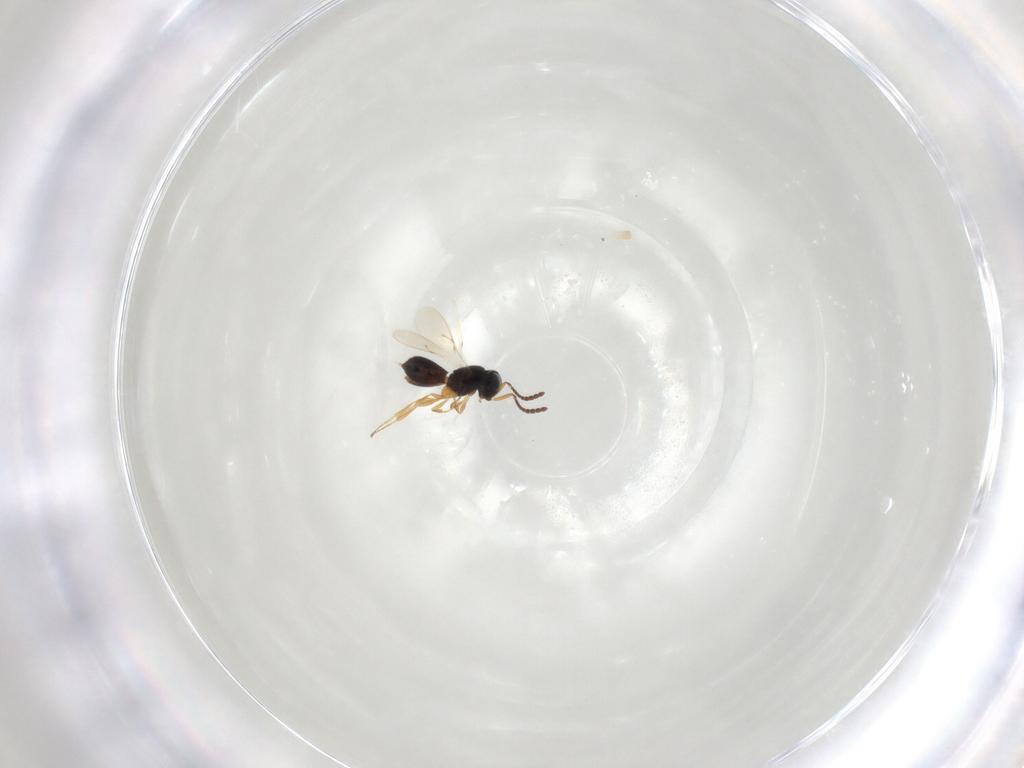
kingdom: Animalia
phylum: Arthropoda
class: Insecta
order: Hymenoptera
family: Scelionidae
